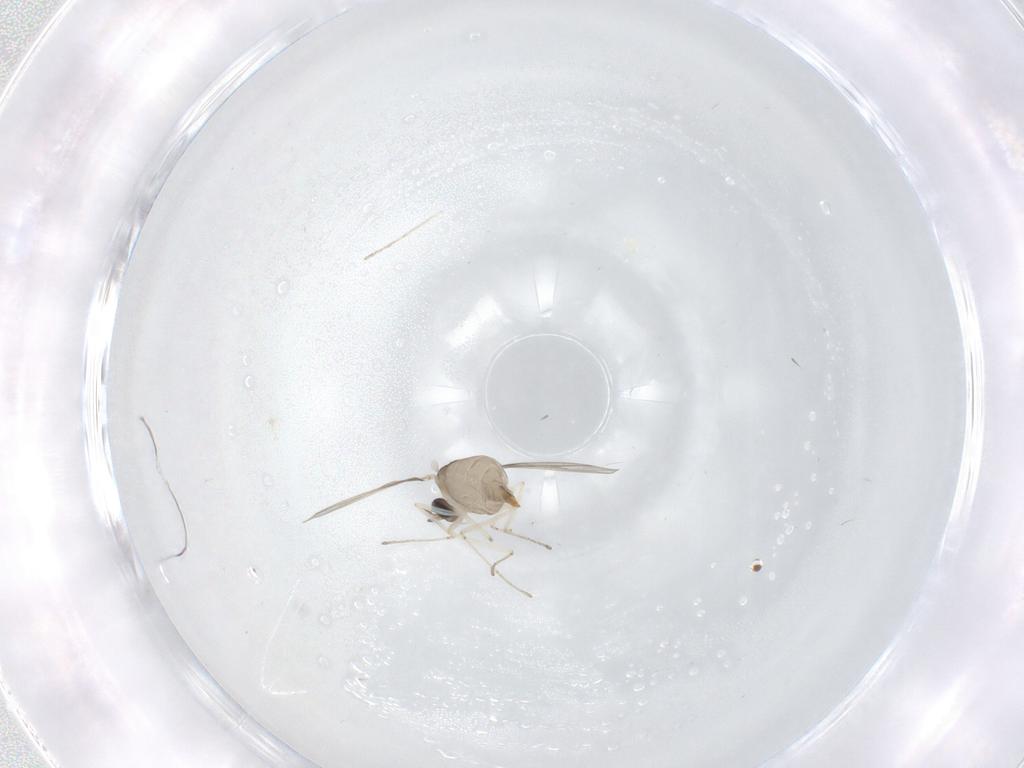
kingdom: Animalia
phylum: Arthropoda
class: Insecta
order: Diptera
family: Cecidomyiidae
